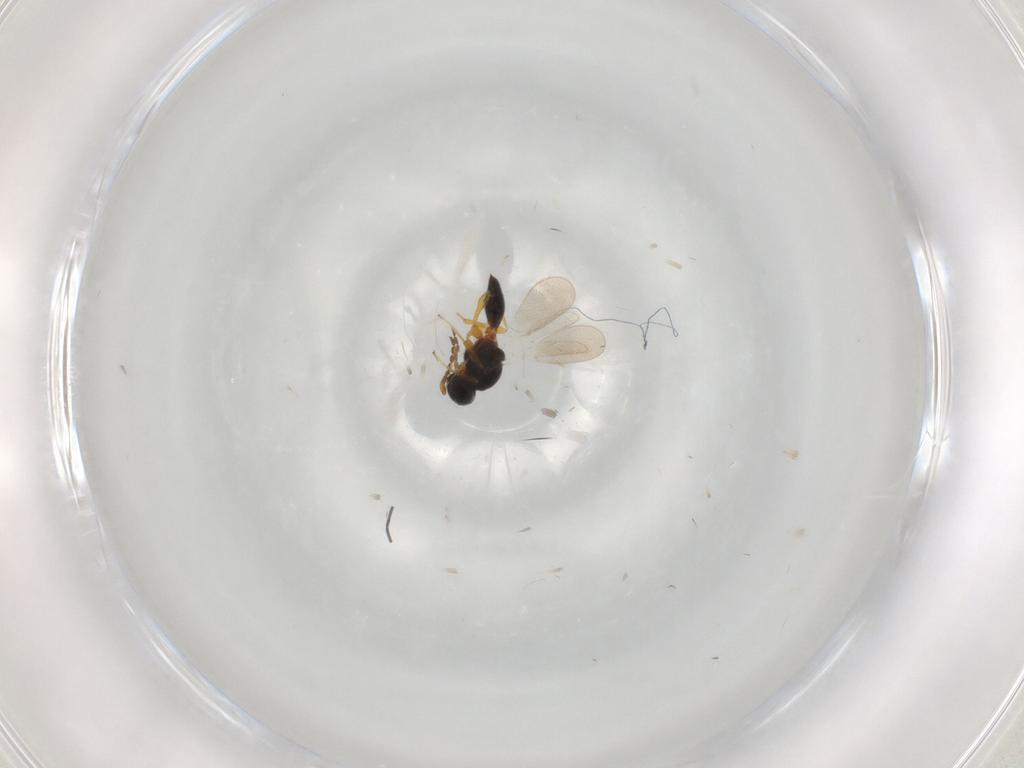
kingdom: Animalia
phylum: Arthropoda
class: Insecta
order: Hymenoptera
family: Platygastridae
